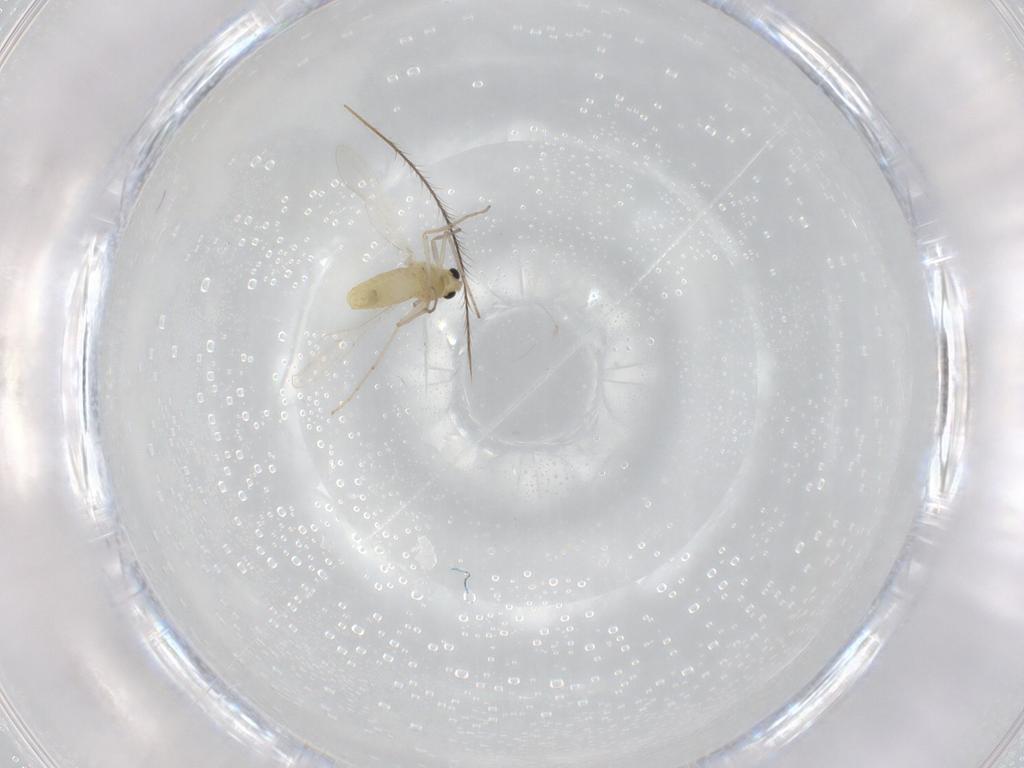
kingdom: Animalia
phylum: Arthropoda
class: Insecta
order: Diptera
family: Chironomidae
